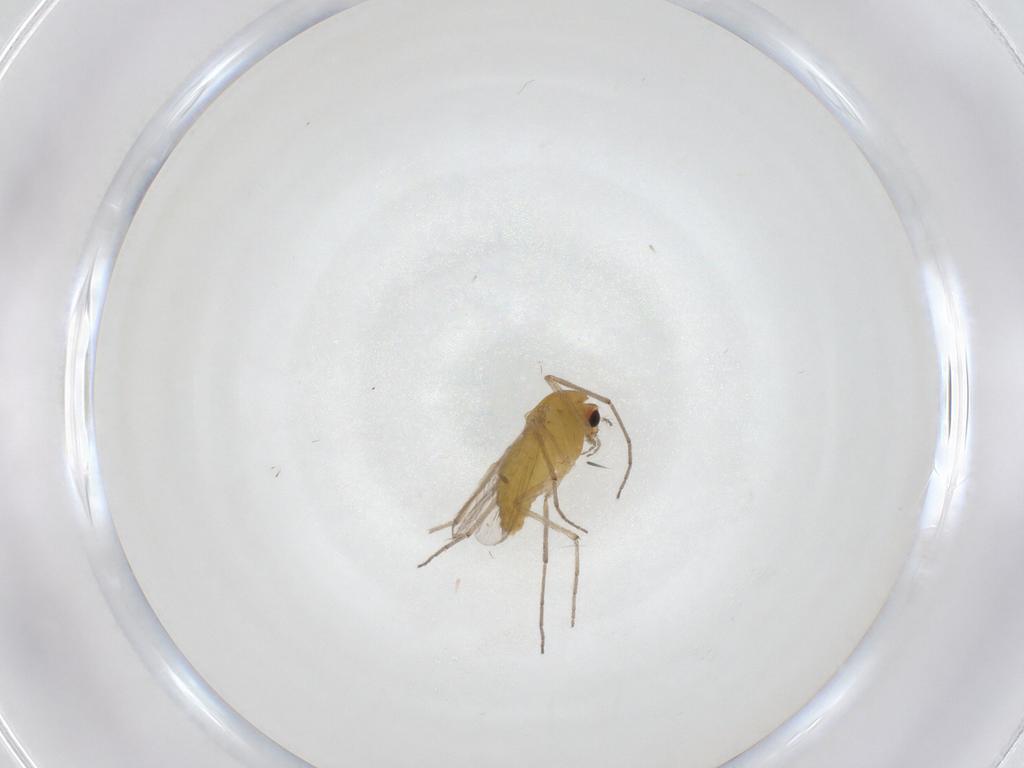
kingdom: Animalia
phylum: Arthropoda
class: Insecta
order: Diptera
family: Chironomidae
